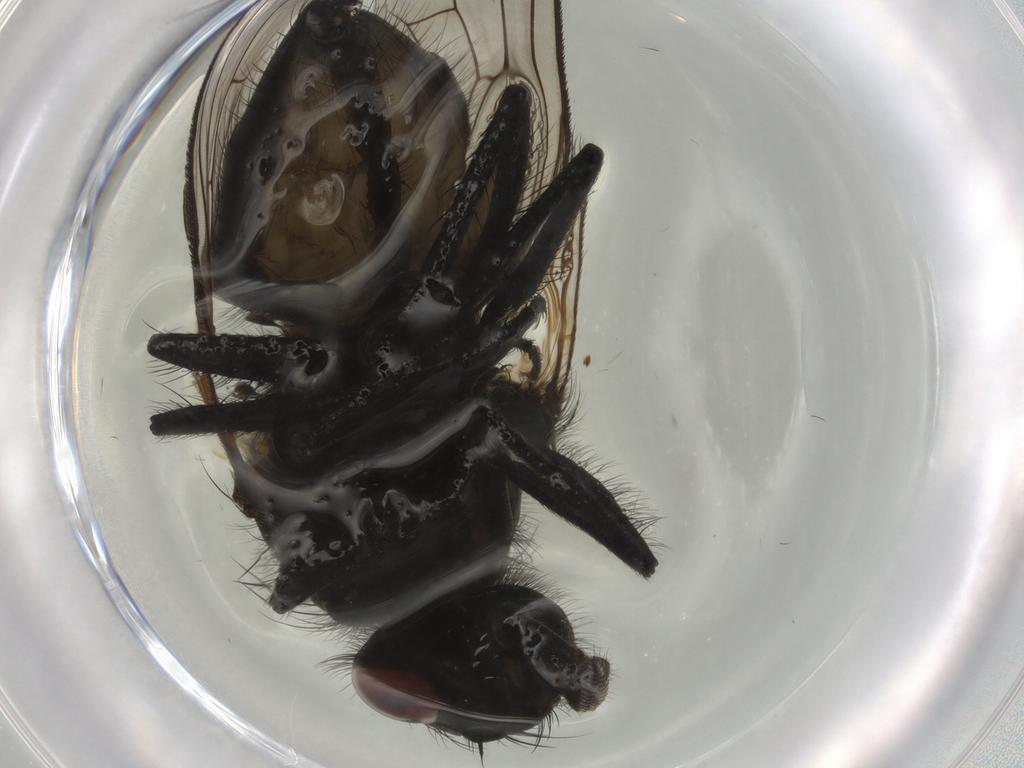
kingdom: Animalia
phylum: Arthropoda
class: Insecta
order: Diptera
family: Muscidae
